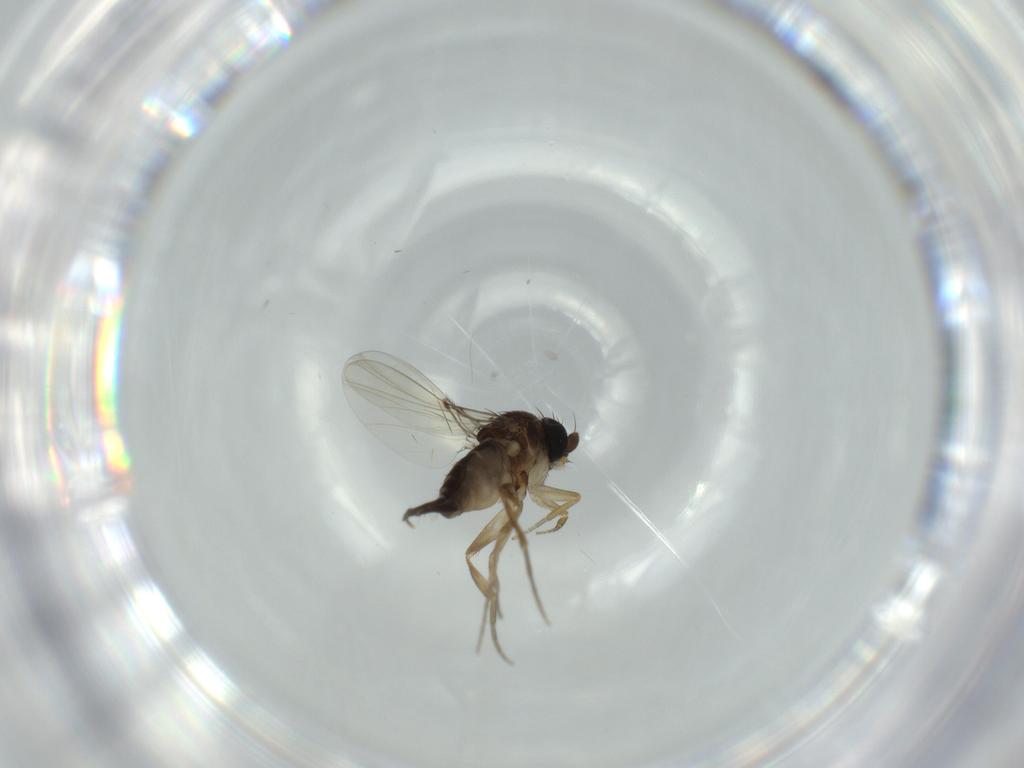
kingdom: Animalia
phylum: Arthropoda
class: Insecta
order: Diptera
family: Phoridae
